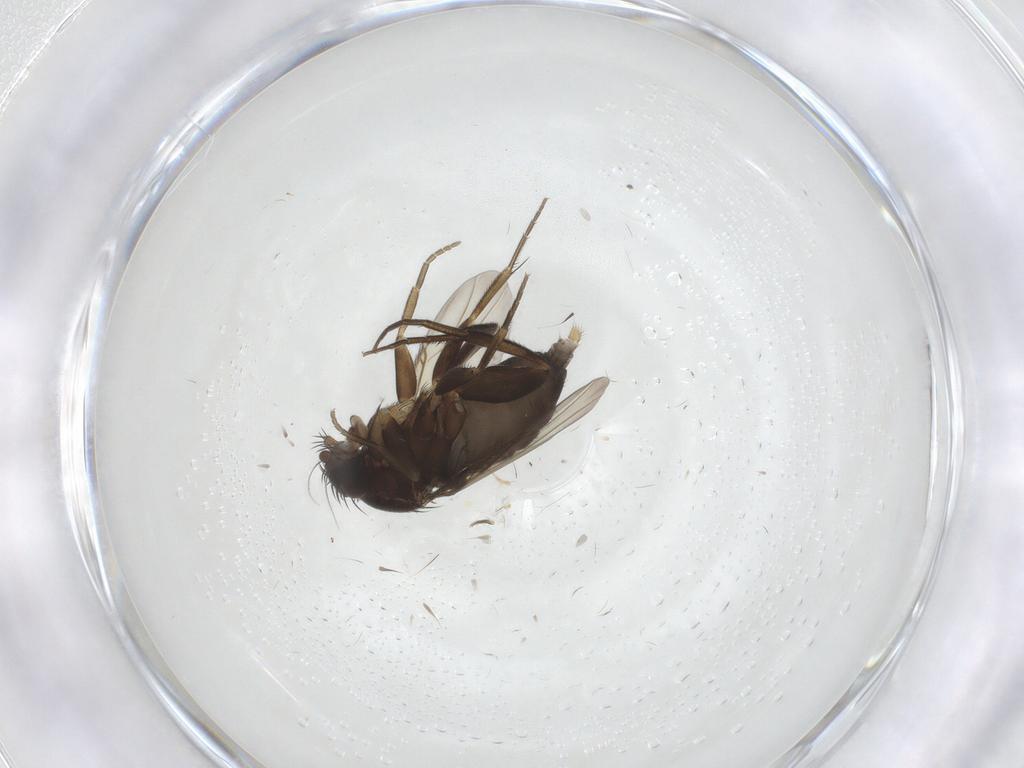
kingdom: Animalia
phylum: Arthropoda
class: Insecta
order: Diptera
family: Phoridae
